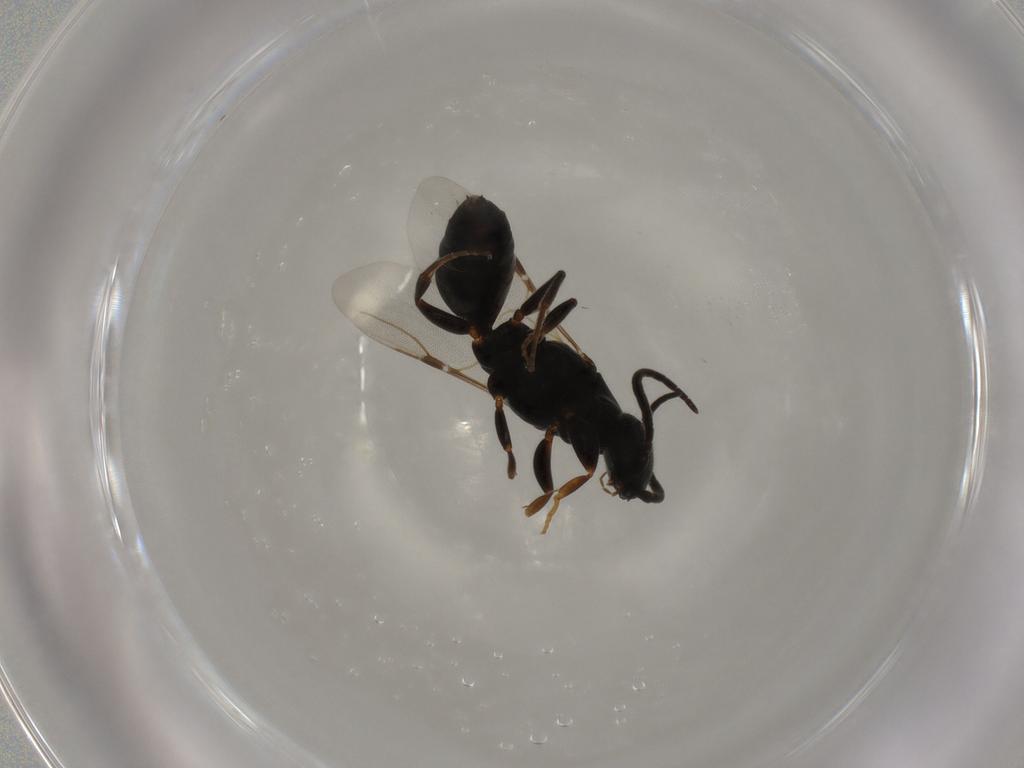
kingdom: Animalia
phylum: Arthropoda
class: Insecta
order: Hymenoptera
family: Bethylidae
